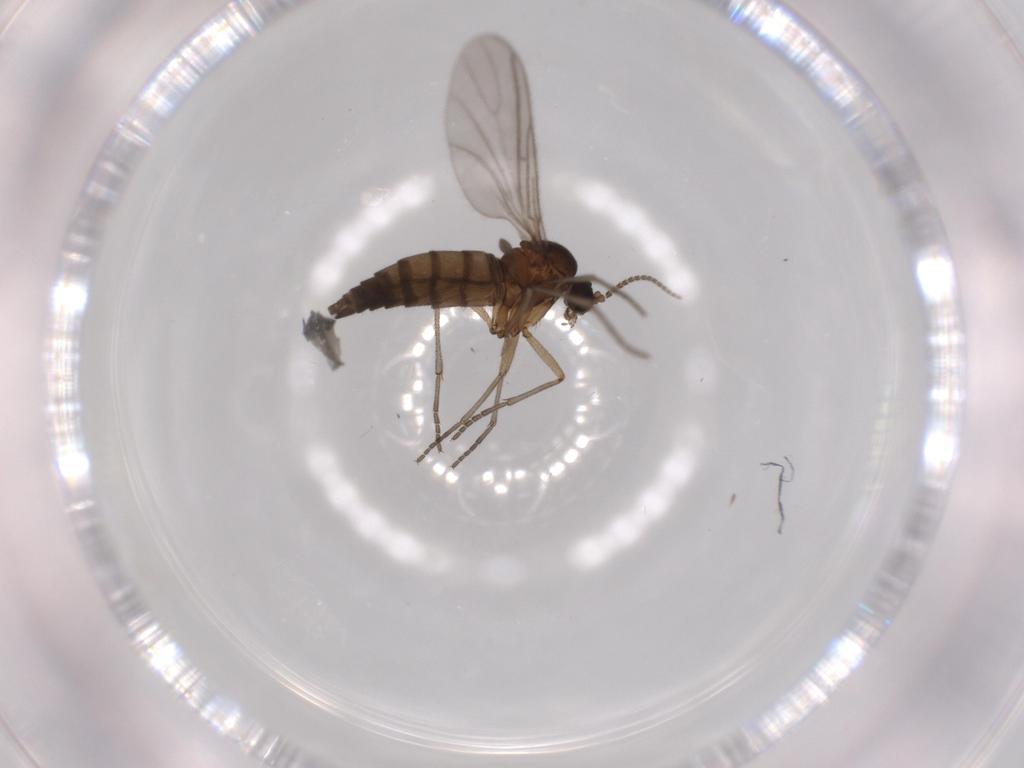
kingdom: Animalia
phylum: Arthropoda
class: Insecta
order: Diptera
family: Sciaridae
